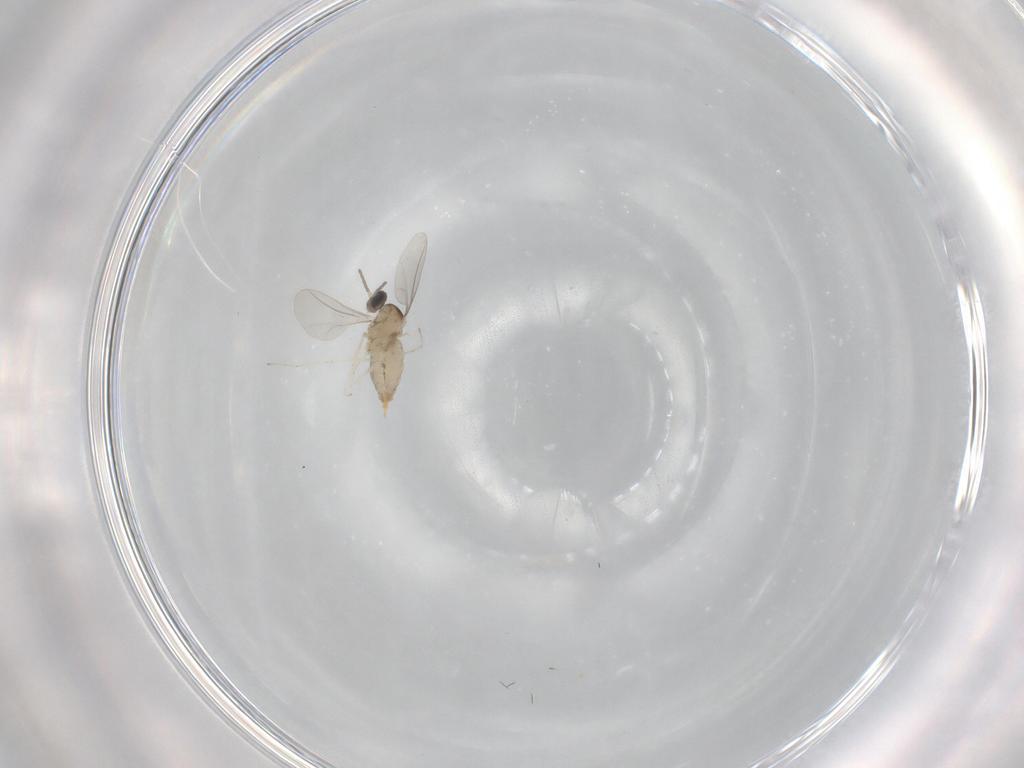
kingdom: Animalia
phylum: Arthropoda
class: Insecta
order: Diptera
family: Cecidomyiidae
